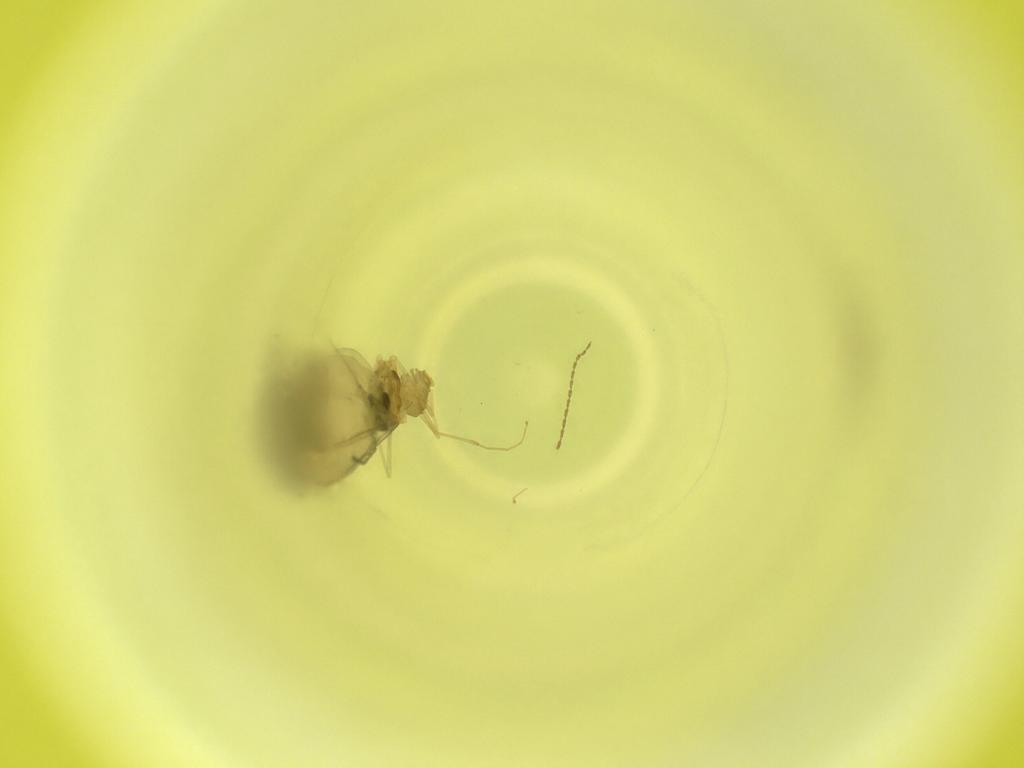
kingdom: Animalia
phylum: Arthropoda
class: Insecta
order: Diptera
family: Cecidomyiidae
